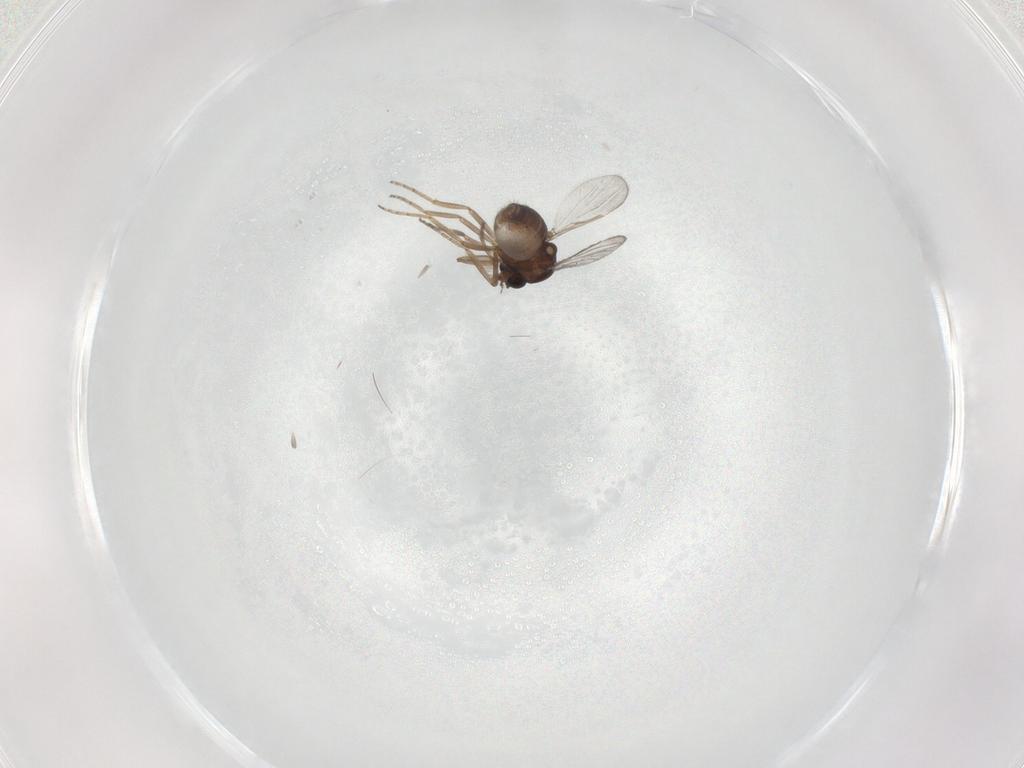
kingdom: Animalia
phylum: Arthropoda
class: Insecta
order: Diptera
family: Ceratopogonidae
